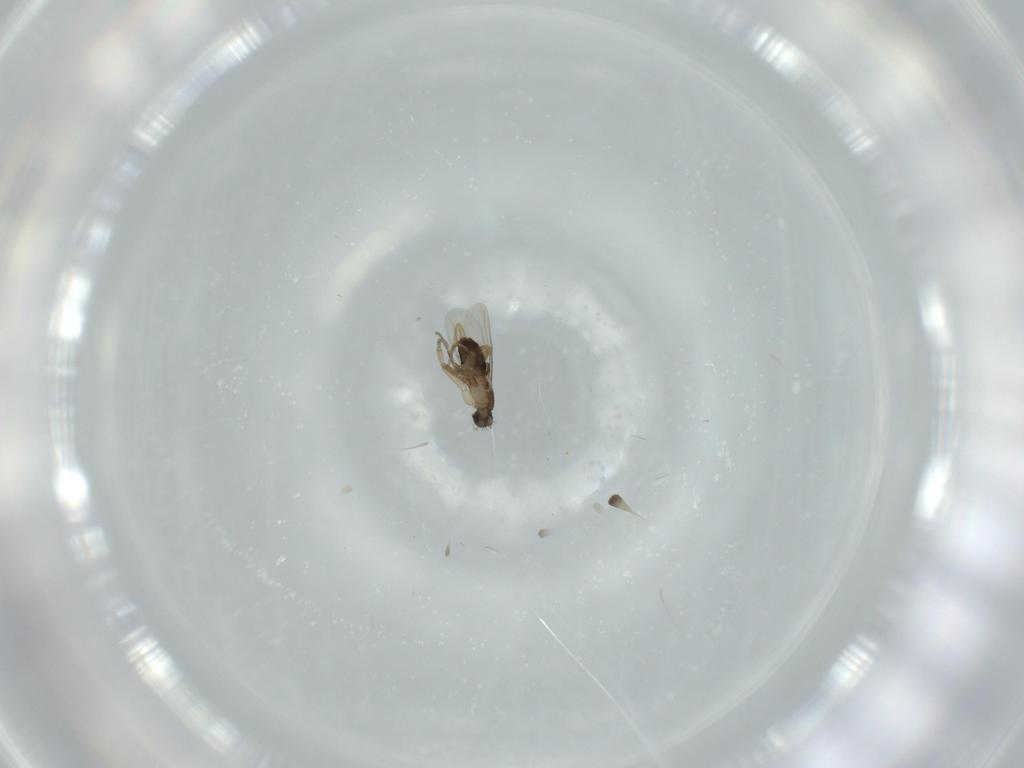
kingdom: Animalia
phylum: Arthropoda
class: Insecta
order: Diptera
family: Phoridae
